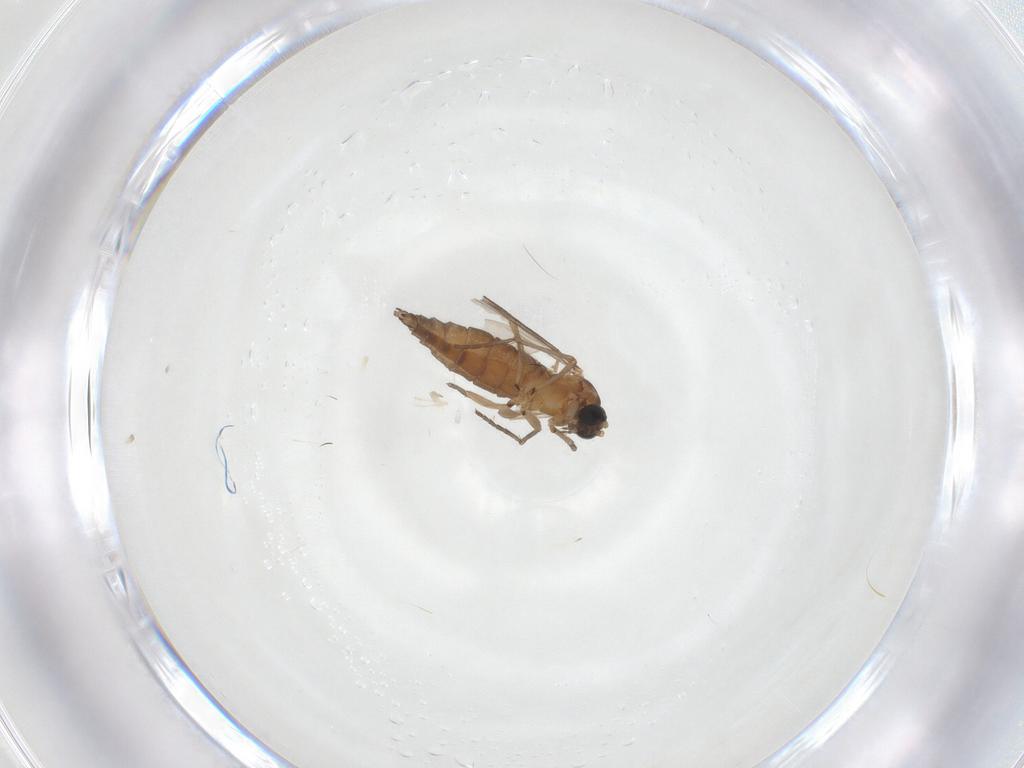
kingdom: Animalia
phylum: Arthropoda
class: Insecta
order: Diptera
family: Sciaridae
